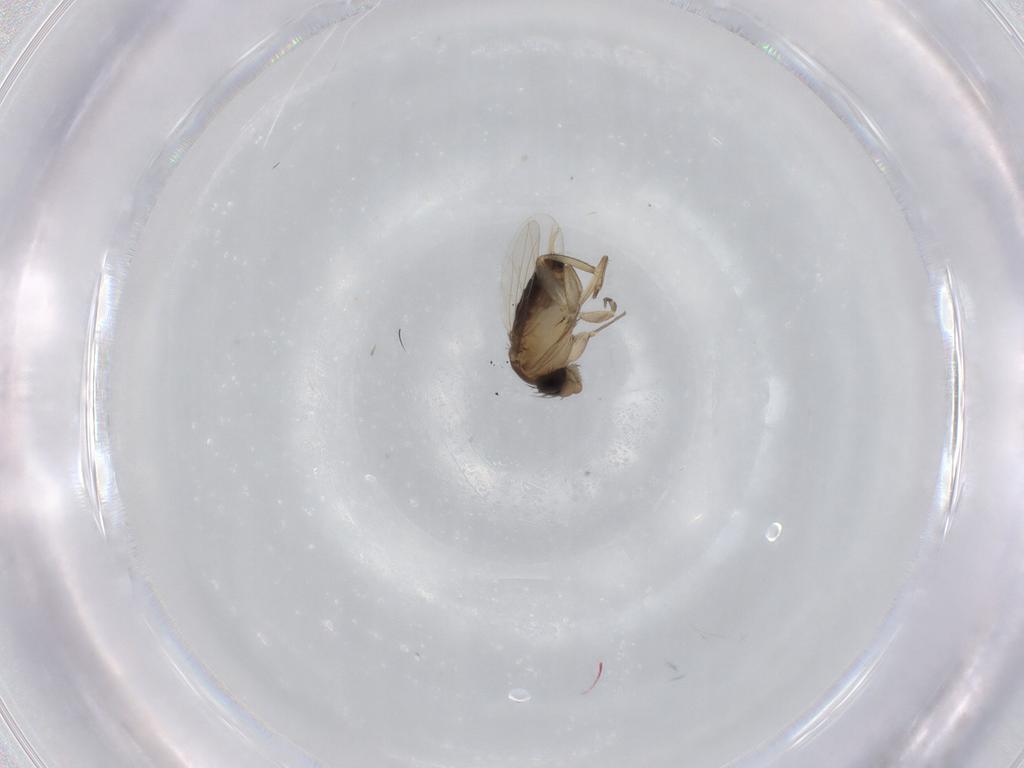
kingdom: Animalia
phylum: Arthropoda
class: Insecta
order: Diptera
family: Phoridae
